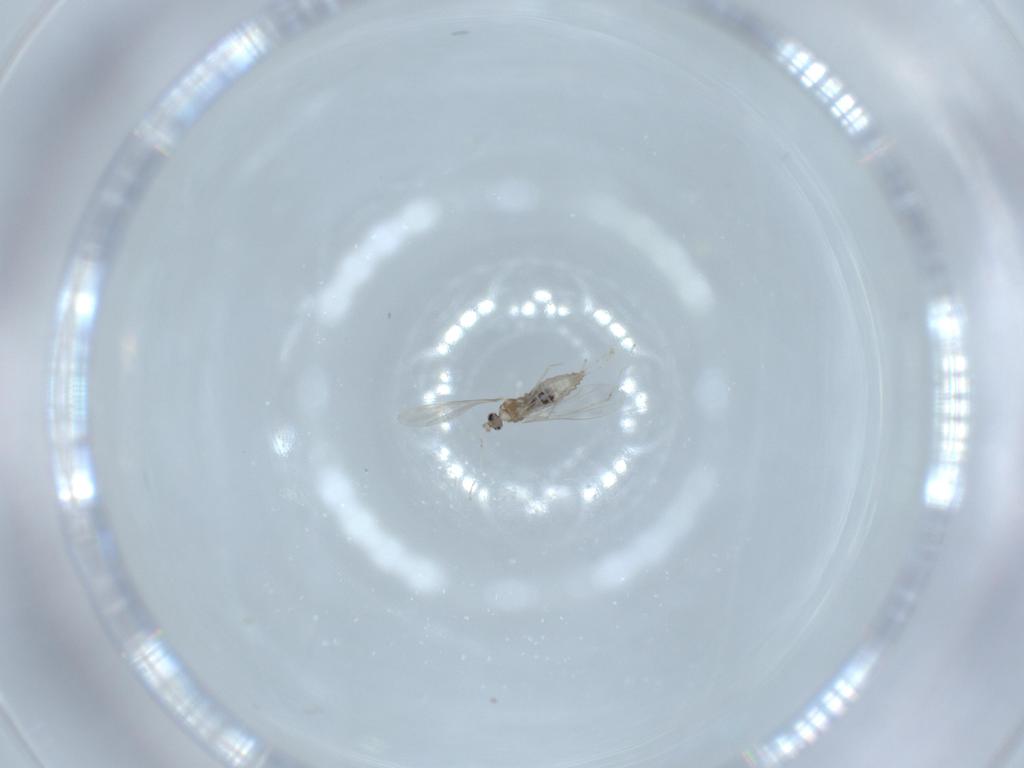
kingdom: Animalia
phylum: Arthropoda
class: Insecta
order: Diptera
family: Cecidomyiidae
